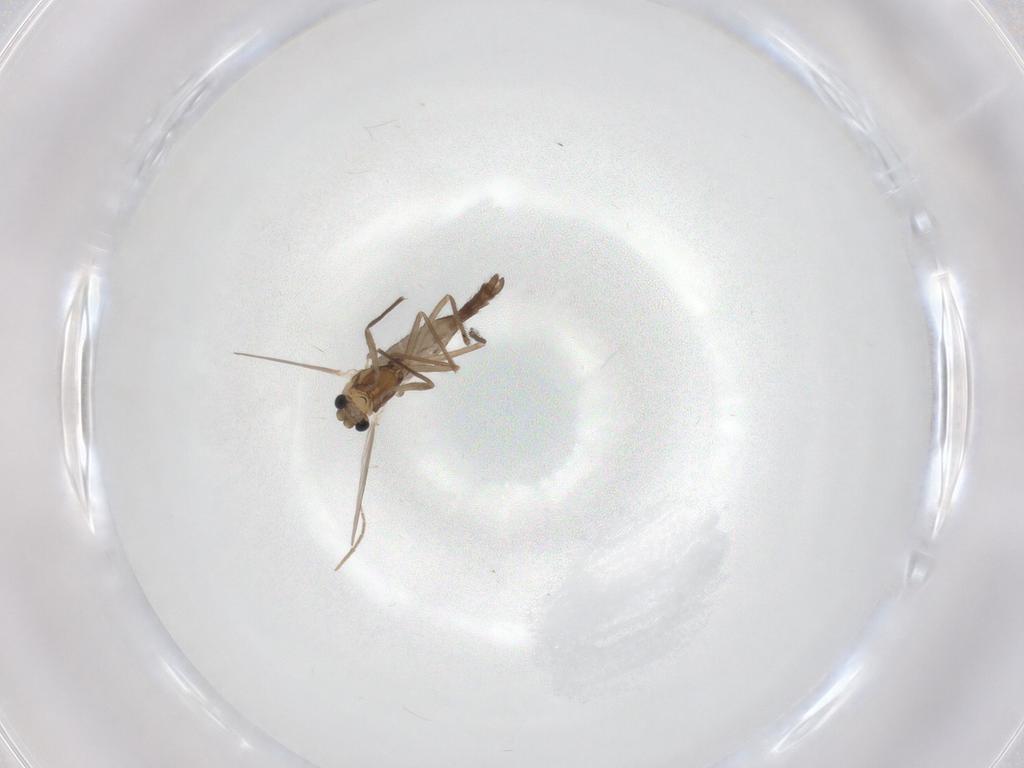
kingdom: Animalia
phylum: Arthropoda
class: Insecta
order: Diptera
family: Chironomidae
